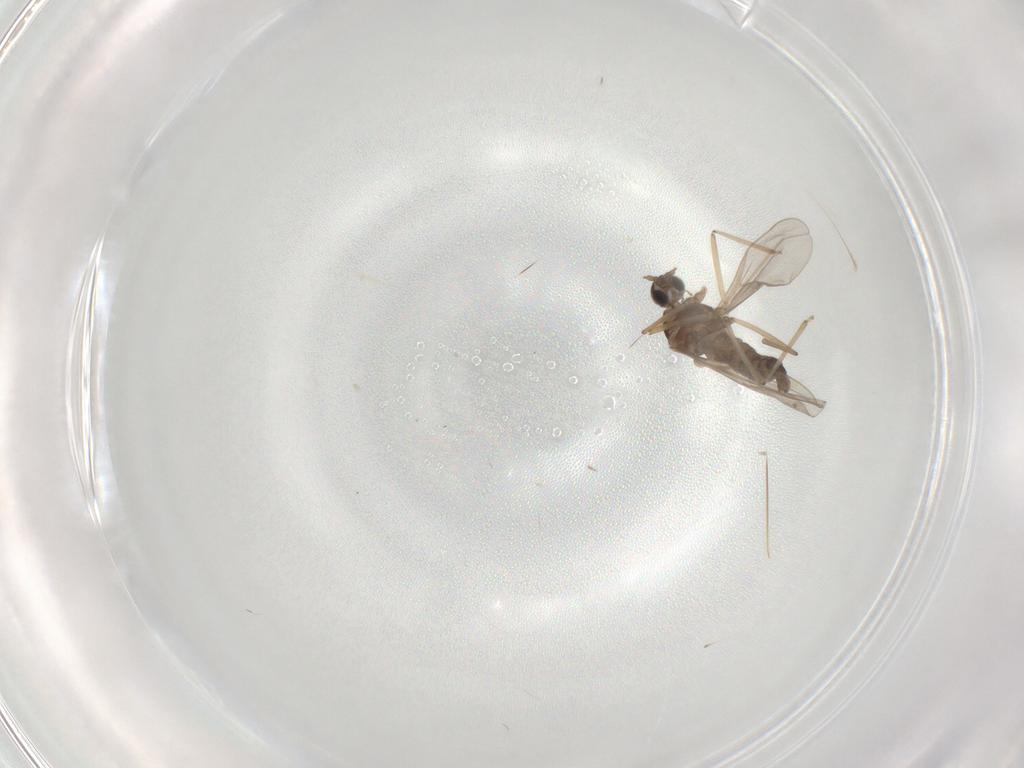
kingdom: Animalia
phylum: Arthropoda
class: Insecta
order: Diptera
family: Cecidomyiidae
